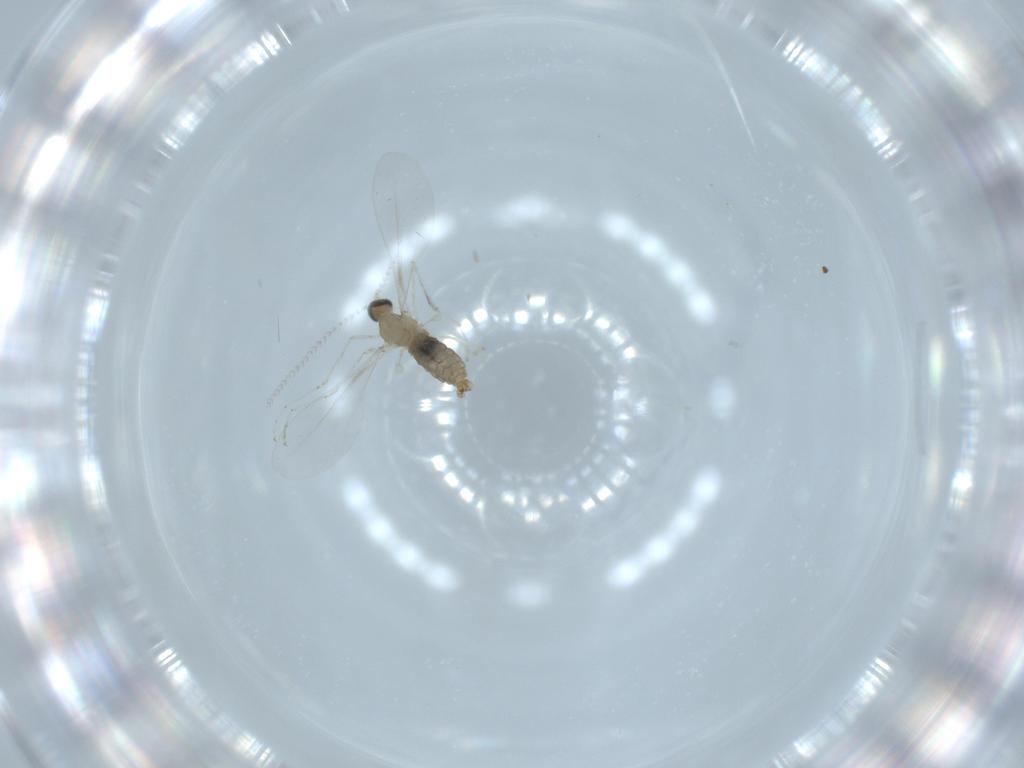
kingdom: Animalia
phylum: Arthropoda
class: Insecta
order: Diptera
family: Cecidomyiidae
